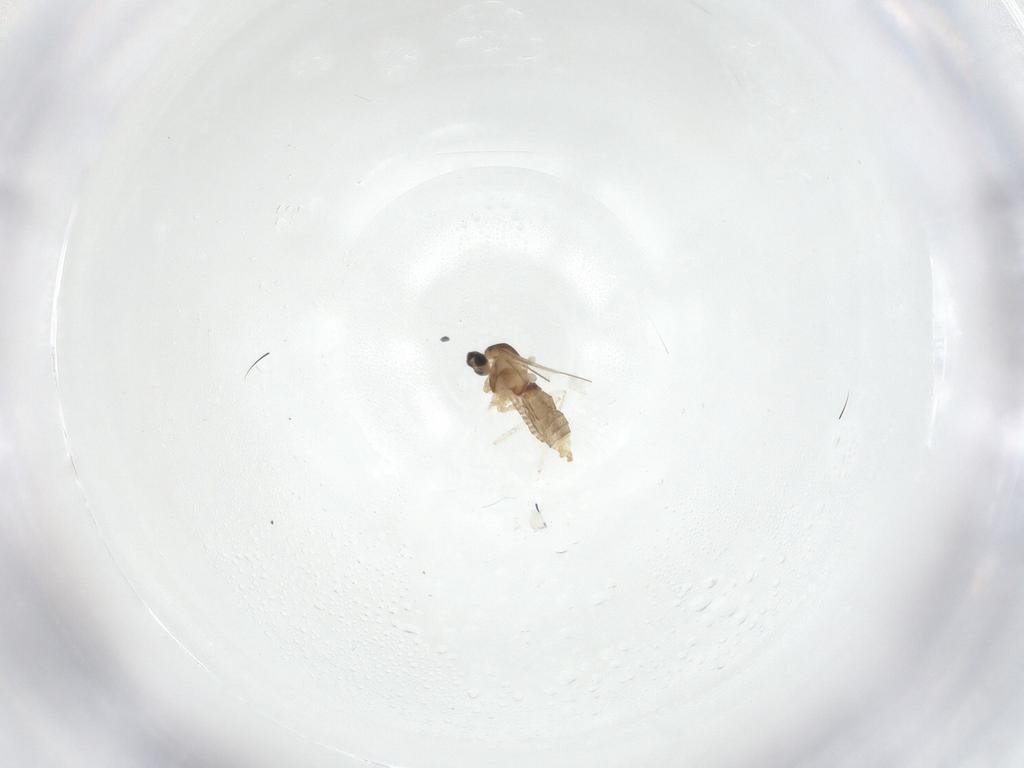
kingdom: Animalia
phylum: Arthropoda
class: Insecta
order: Diptera
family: Cecidomyiidae
